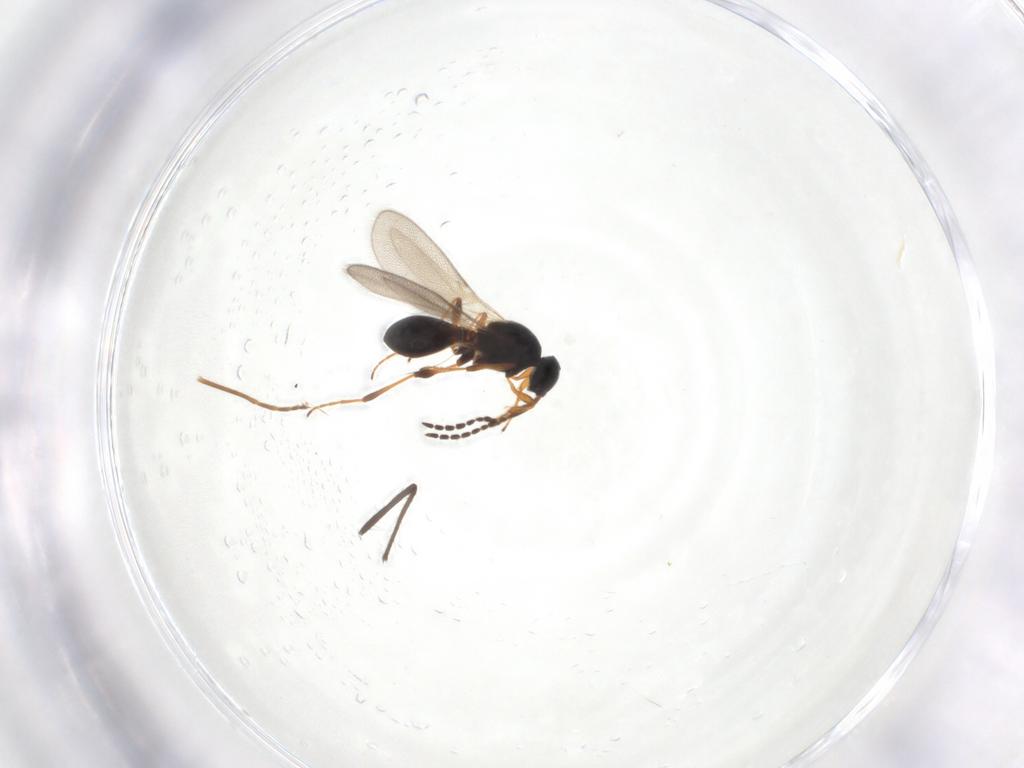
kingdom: Animalia
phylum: Arthropoda
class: Insecta
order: Hymenoptera
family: Platygastridae
